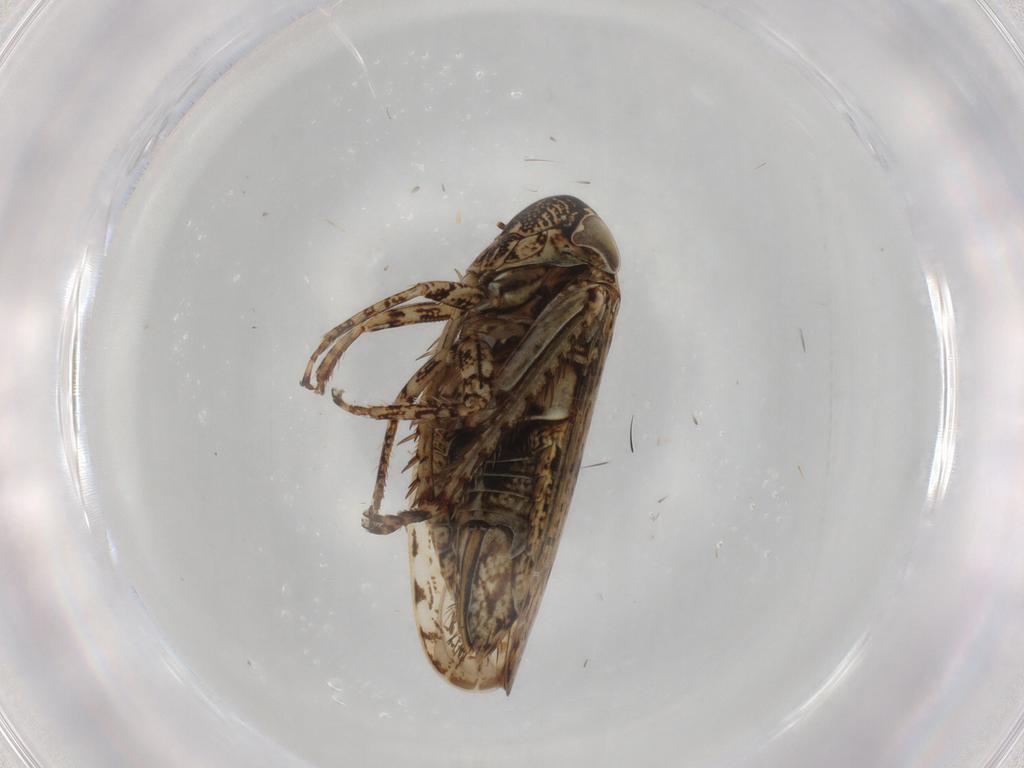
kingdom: Animalia
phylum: Arthropoda
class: Insecta
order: Hemiptera
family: Cicadellidae
